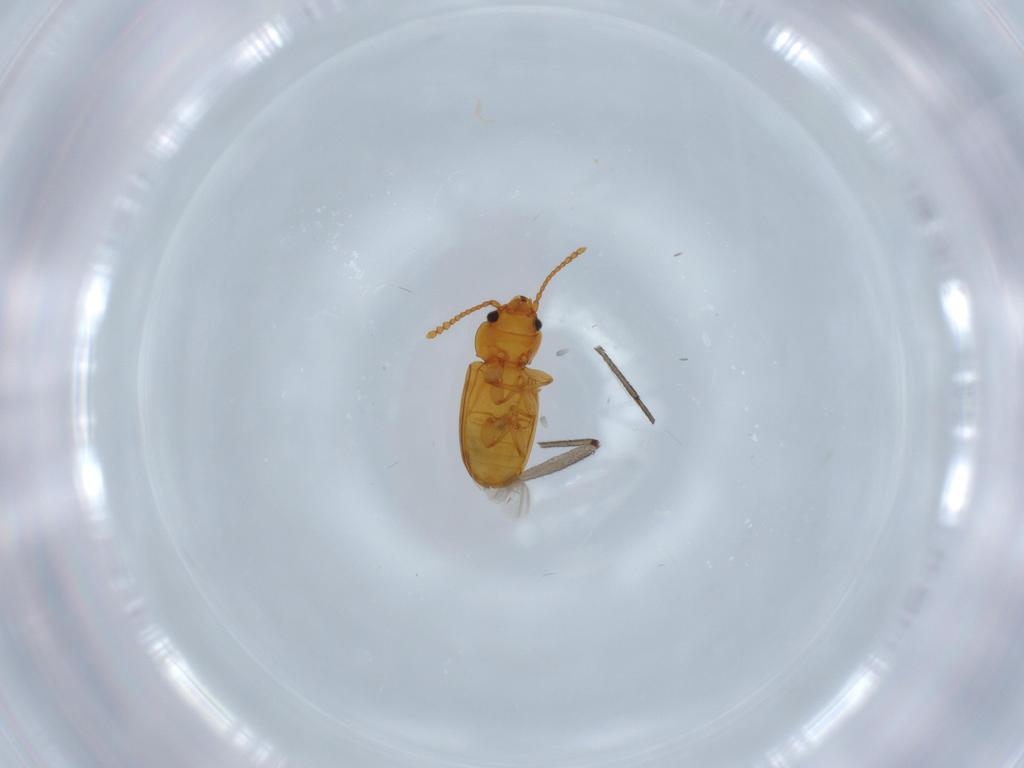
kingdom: Animalia
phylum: Arthropoda
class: Insecta
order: Coleoptera
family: Laemophloeidae
